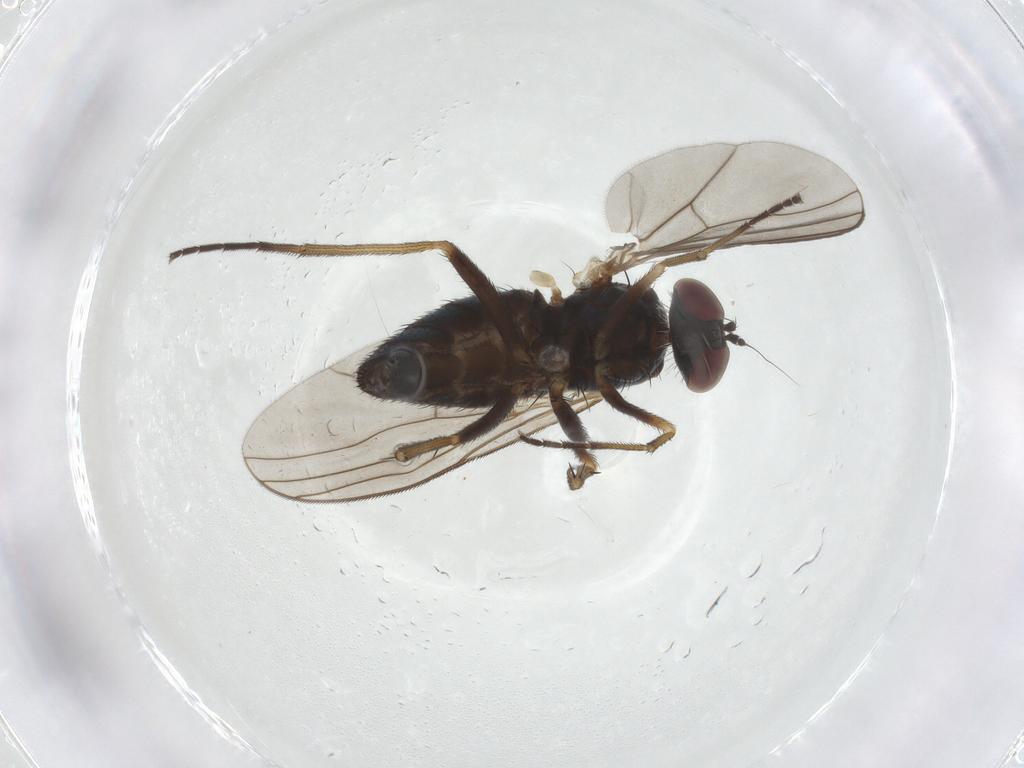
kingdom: Animalia
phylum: Arthropoda
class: Insecta
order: Diptera
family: Dolichopodidae
